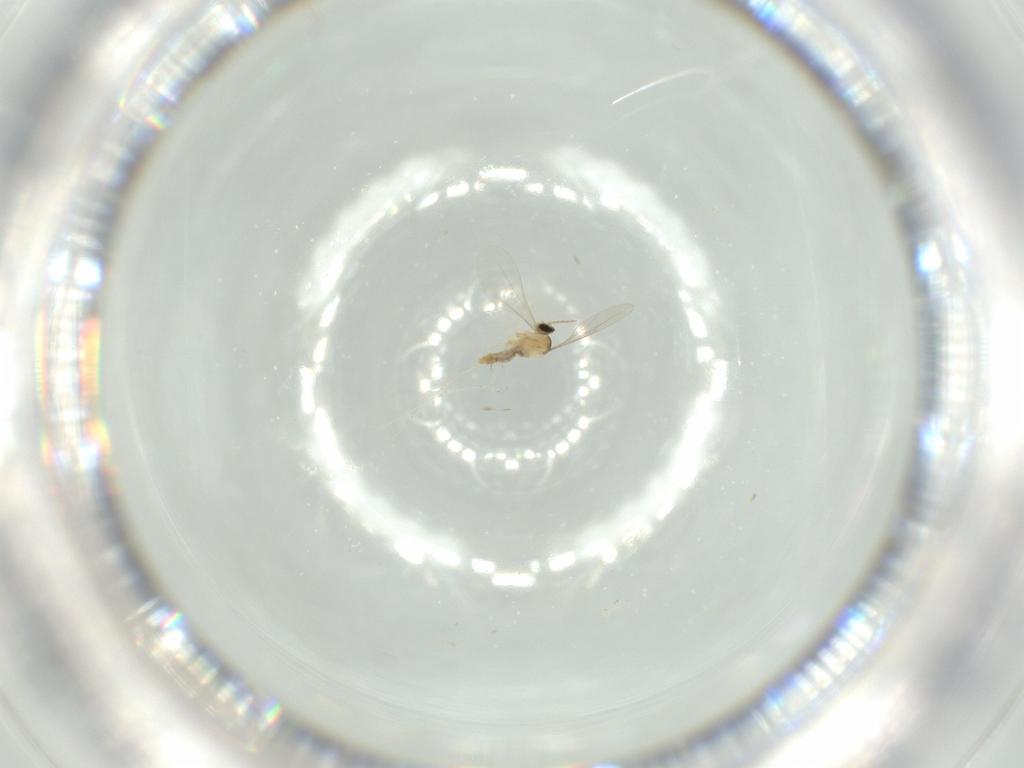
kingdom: Animalia
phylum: Arthropoda
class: Insecta
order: Diptera
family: Cecidomyiidae
